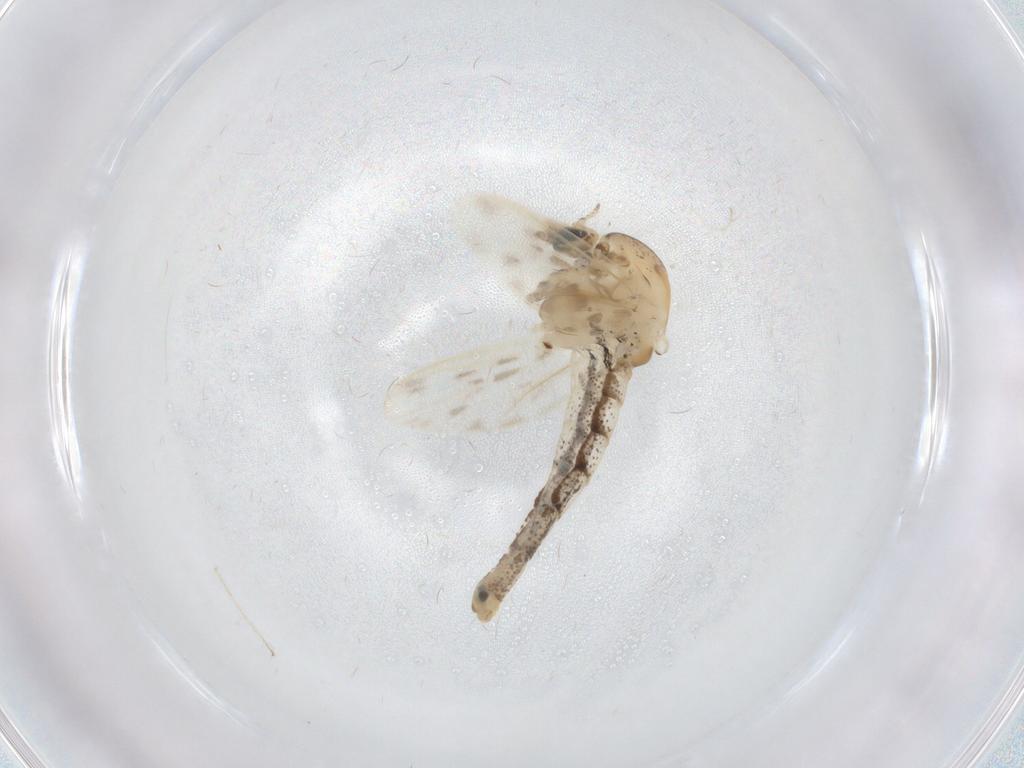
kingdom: Animalia
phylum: Arthropoda
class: Insecta
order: Diptera
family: Chaoboridae
